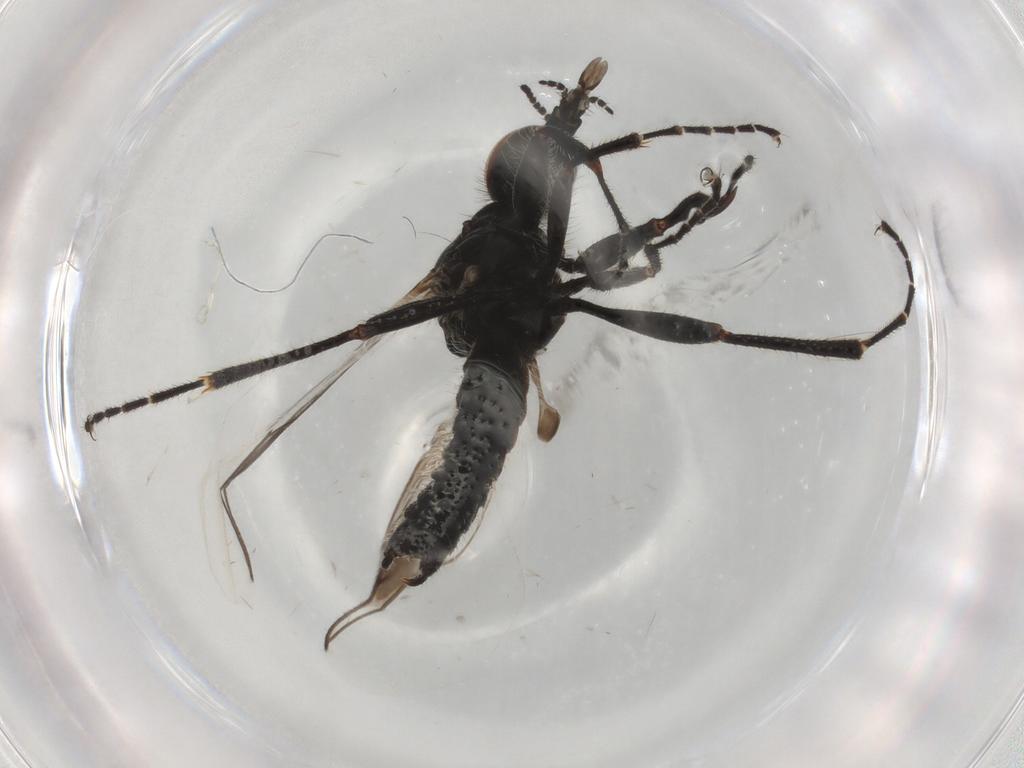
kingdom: Animalia
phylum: Arthropoda
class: Insecta
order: Diptera
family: Bibionidae
